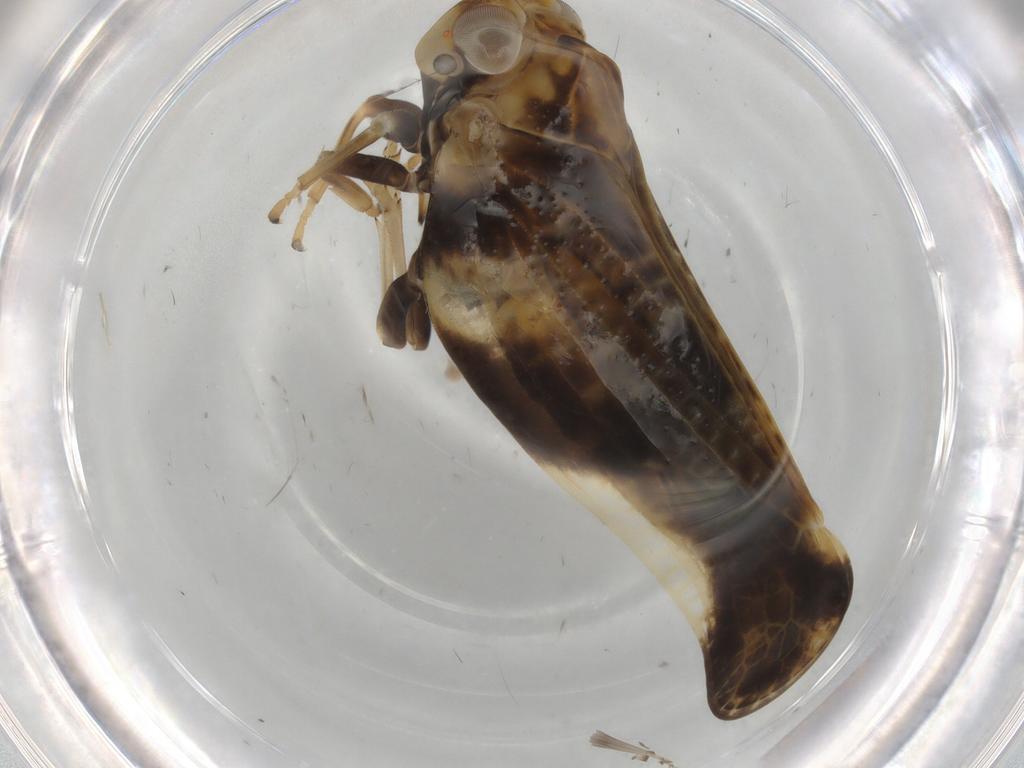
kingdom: Animalia
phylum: Arthropoda
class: Insecta
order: Hemiptera
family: Nogodinidae
